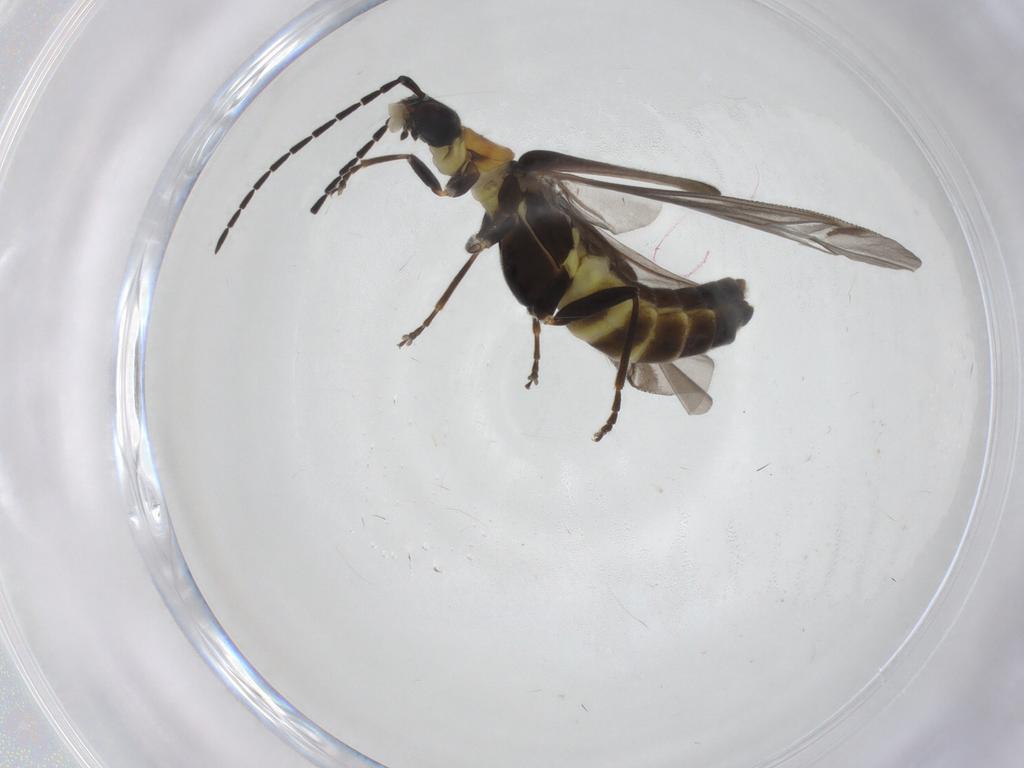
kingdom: Animalia
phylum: Arthropoda
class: Insecta
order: Coleoptera
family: Cantharidae
